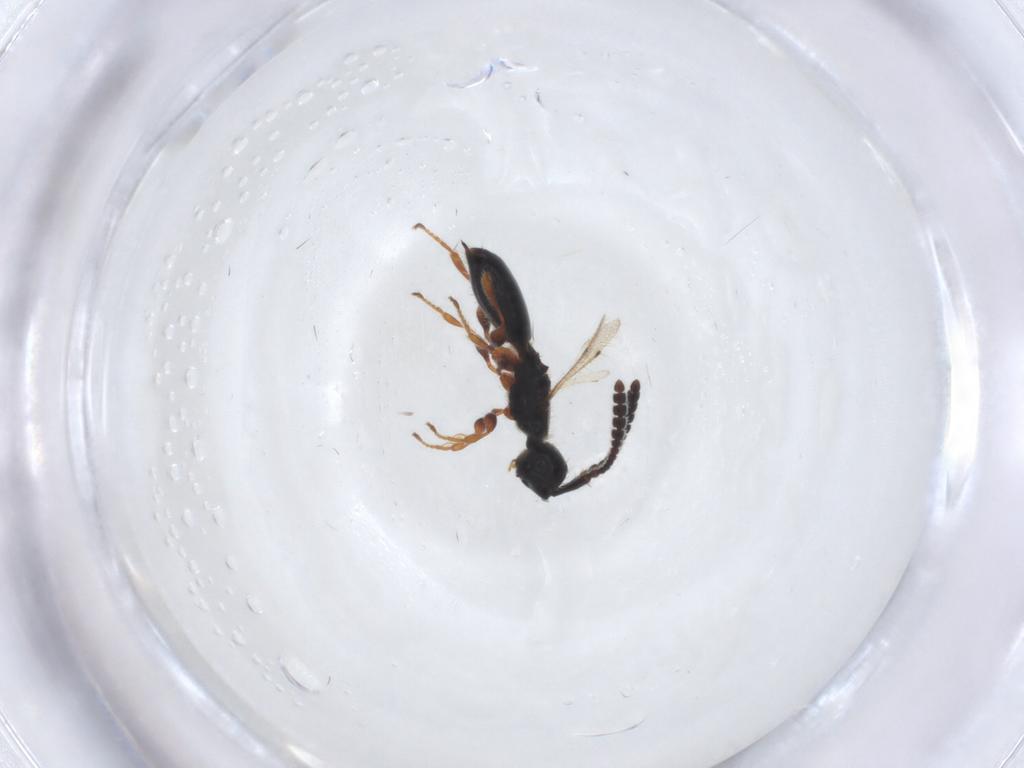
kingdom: Animalia
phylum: Arthropoda
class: Insecta
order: Hymenoptera
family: Diapriidae
